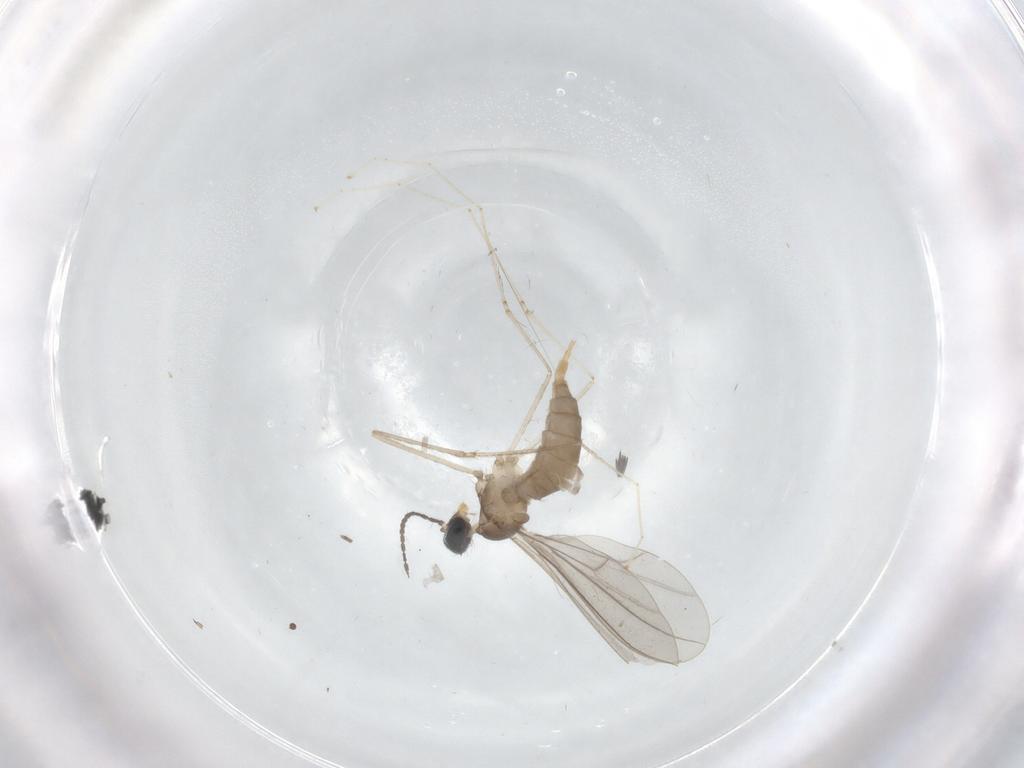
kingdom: Animalia
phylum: Arthropoda
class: Insecta
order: Diptera
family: Cecidomyiidae
